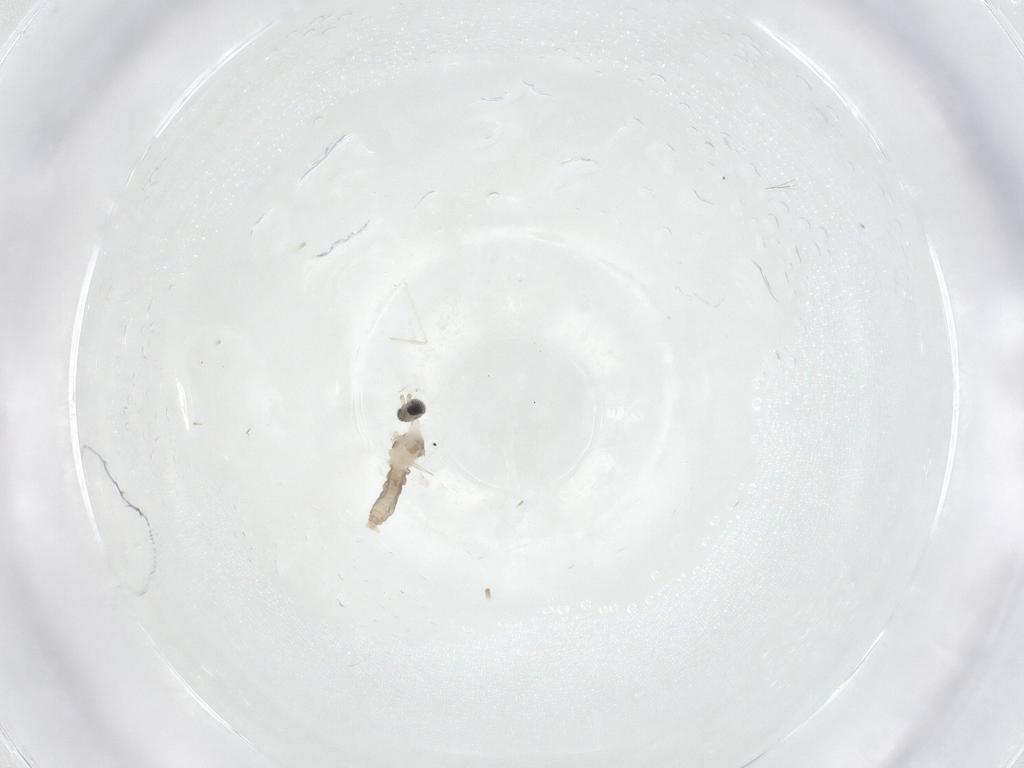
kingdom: Animalia
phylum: Arthropoda
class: Insecta
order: Diptera
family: Cecidomyiidae
